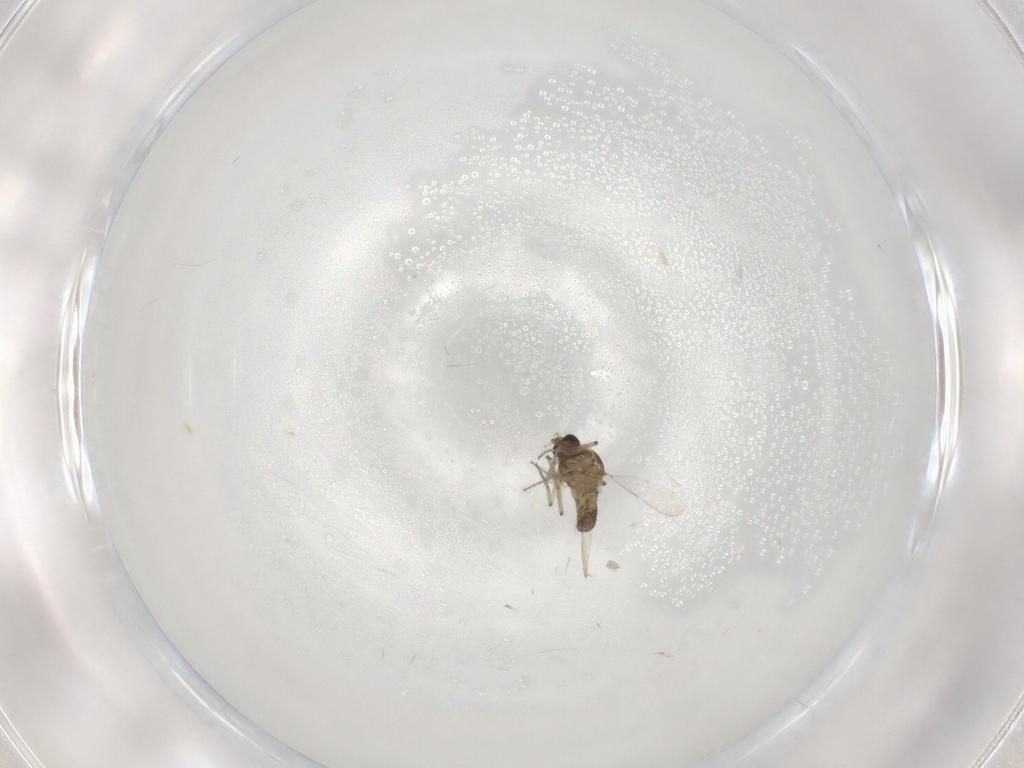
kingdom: Animalia
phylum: Arthropoda
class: Insecta
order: Diptera
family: Ceratopogonidae
